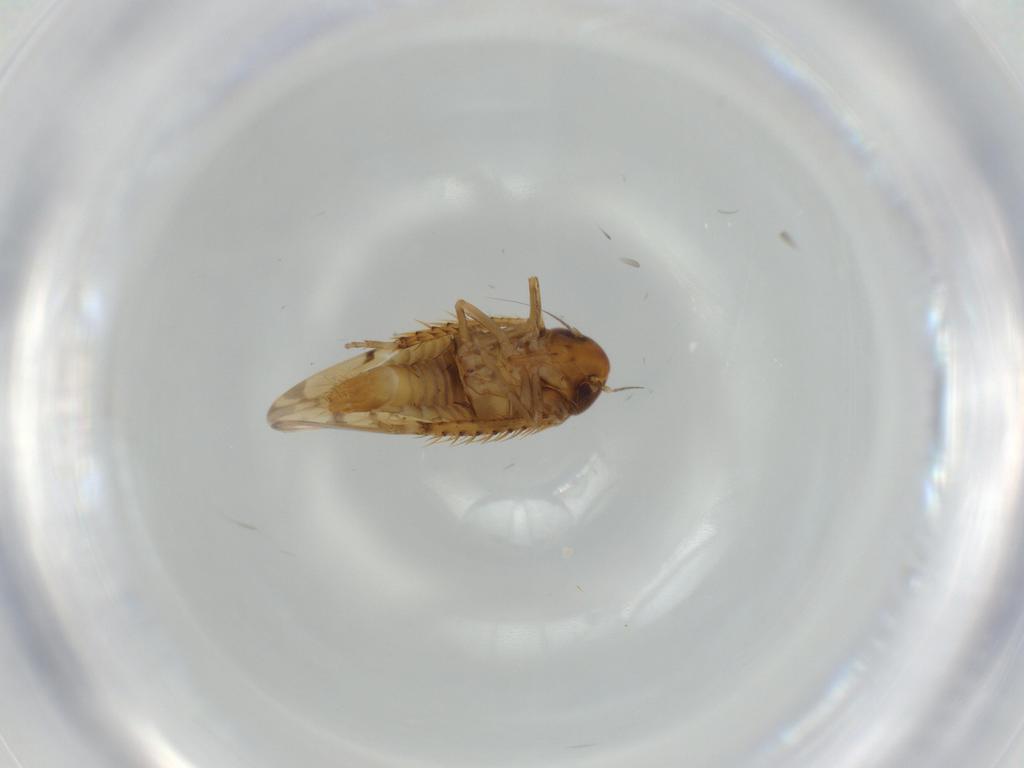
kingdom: Animalia
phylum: Arthropoda
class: Insecta
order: Hemiptera
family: Cicadellidae
